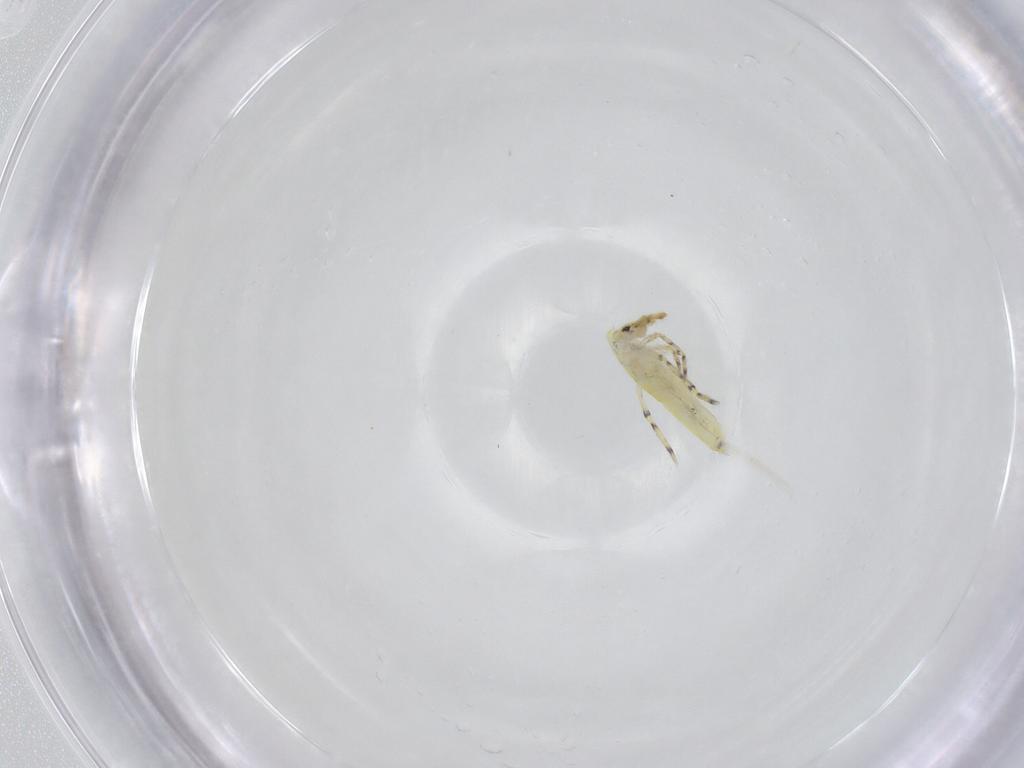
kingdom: Animalia
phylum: Arthropoda
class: Collembola
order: Entomobryomorpha
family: Entomobryidae
